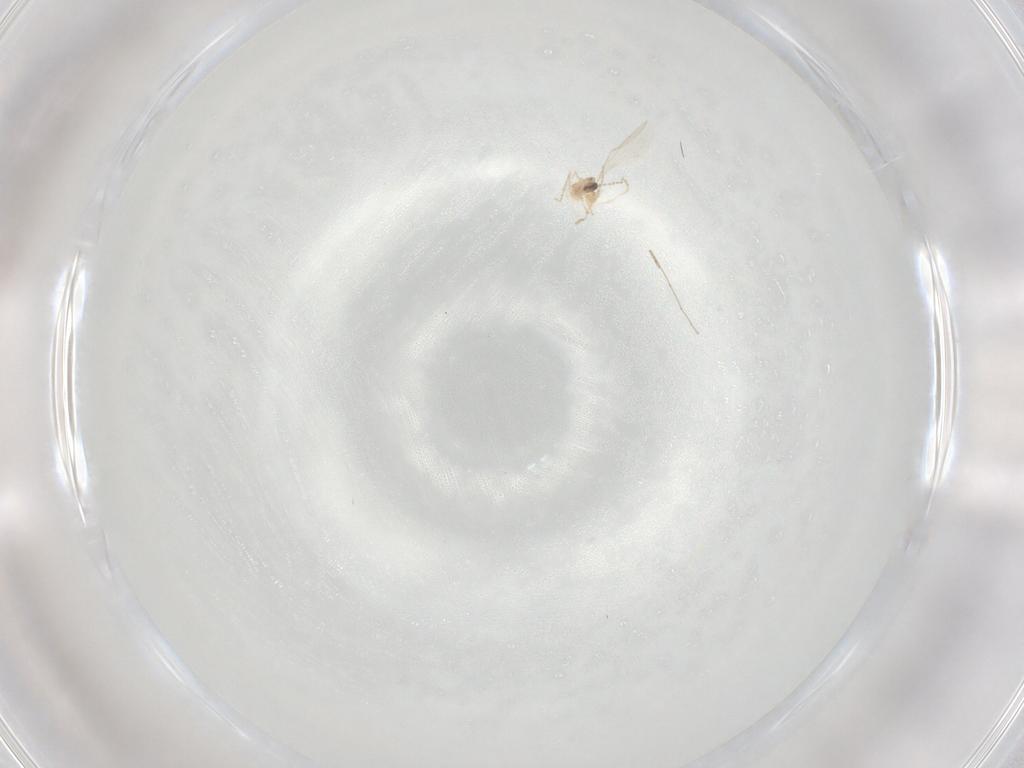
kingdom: Animalia
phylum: Arthropoda
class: Insecta
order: Diptera
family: Cecidomyiidae
